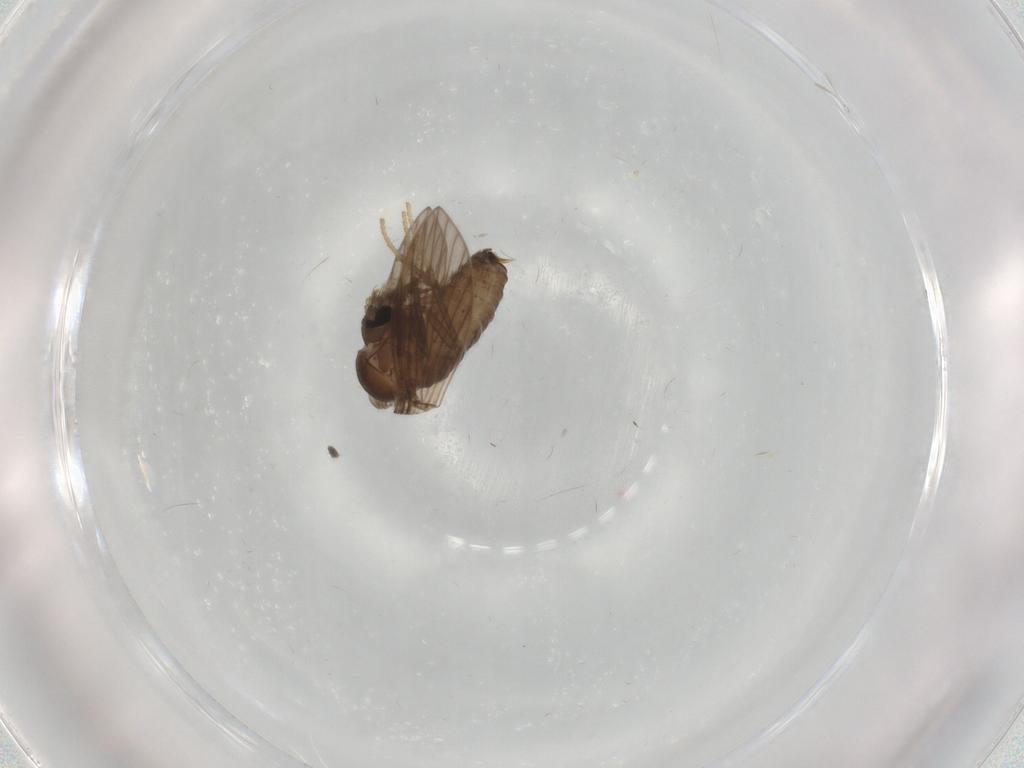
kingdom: Animalia
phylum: Arthropoda
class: Insecta
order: Diptera
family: Psychodidae
